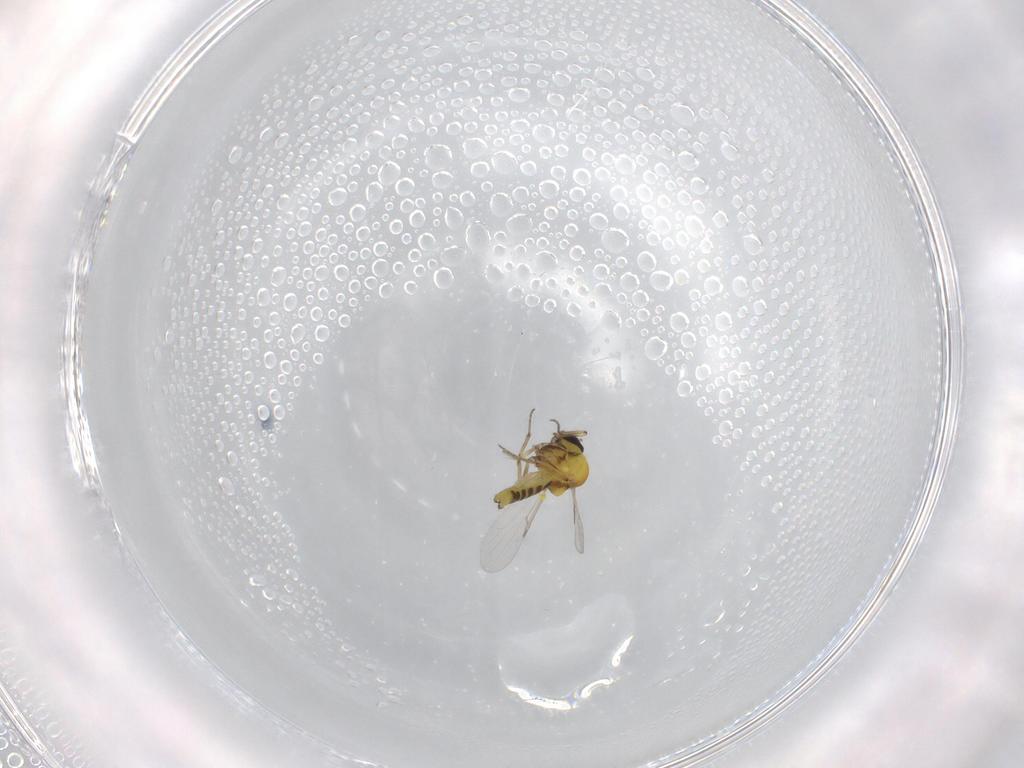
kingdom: Animalia
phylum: Arthropoda
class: Insecta
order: Diptera
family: Ceratopogonidae
